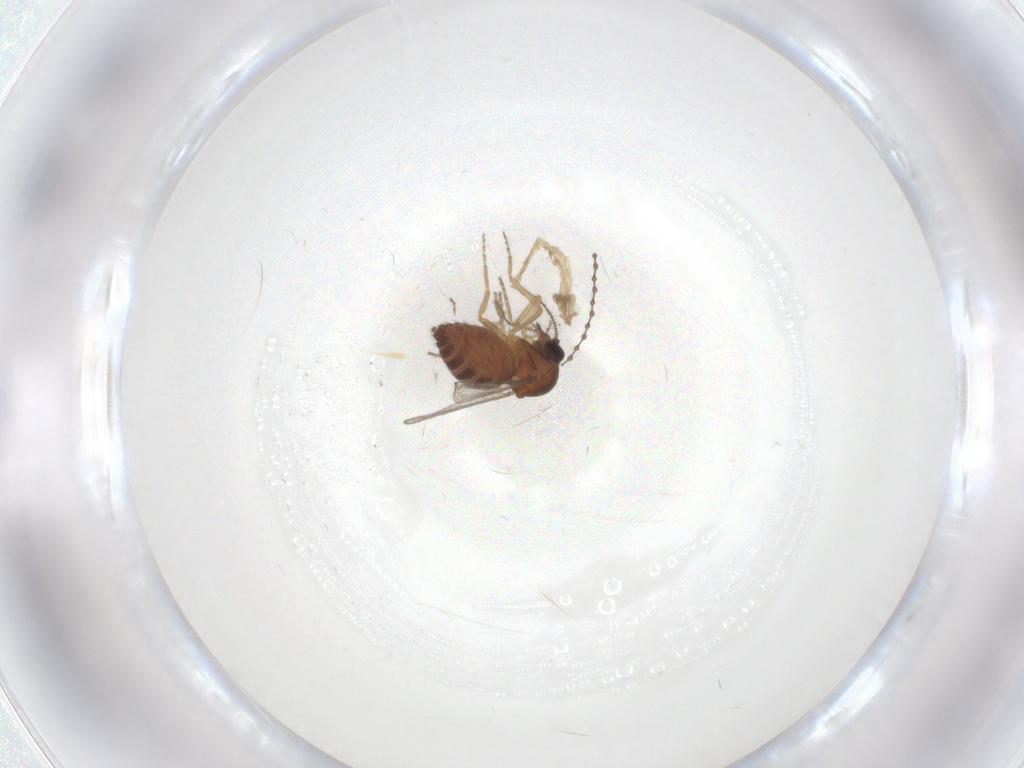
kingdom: Animalia
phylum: Arthropoda
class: Insecta
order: Diptera
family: Ceratopogonidae
